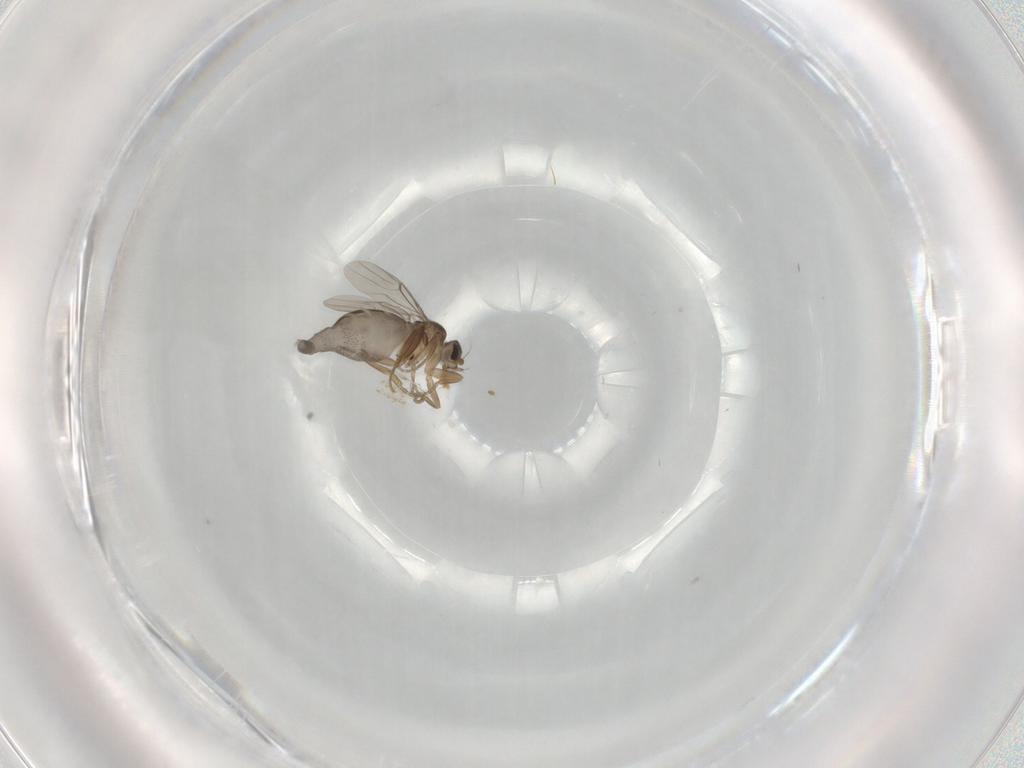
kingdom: Animalia
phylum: Arthropoda
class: Insecta
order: Diptera
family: Phoridae
